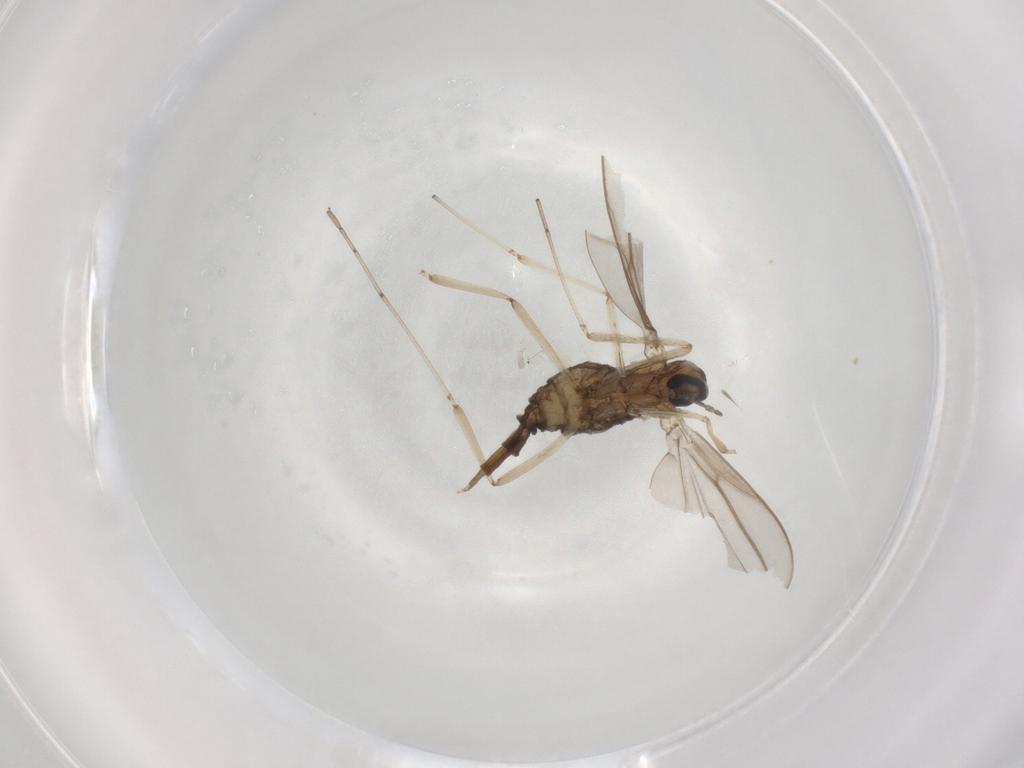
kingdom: Animalia
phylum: Arthropoda
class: Insecta
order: Diptera
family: Cecidomyiidae
